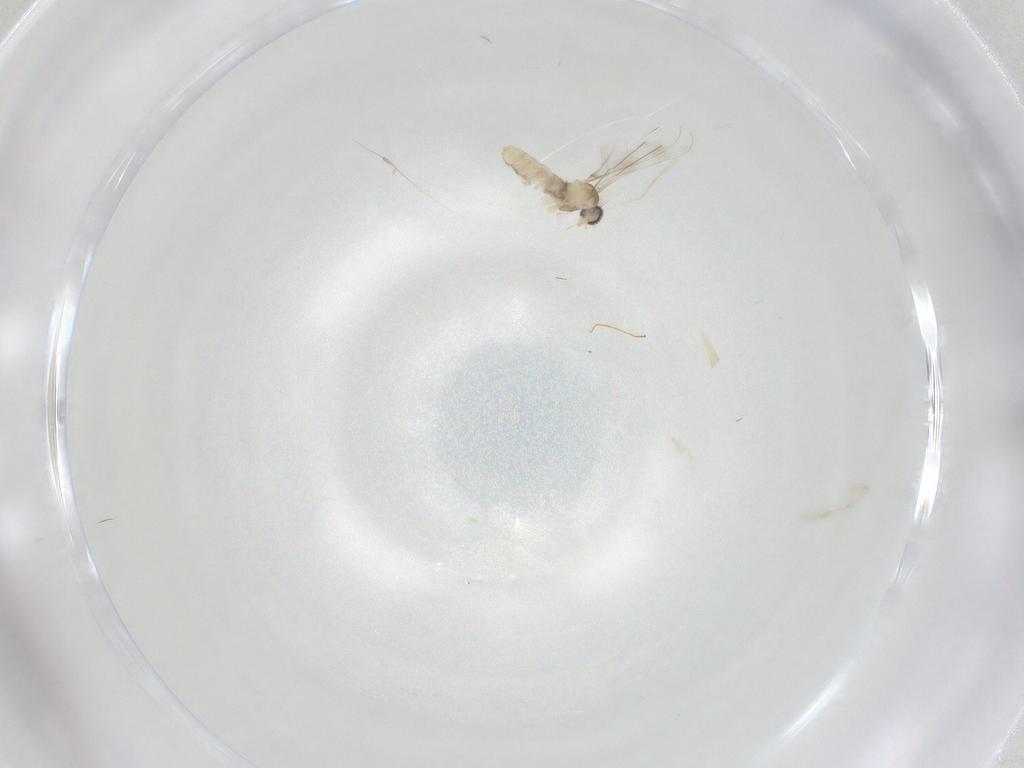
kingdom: Animalia
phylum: Arthropoda
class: Insecta
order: Diptera
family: Cecidomyiidae
